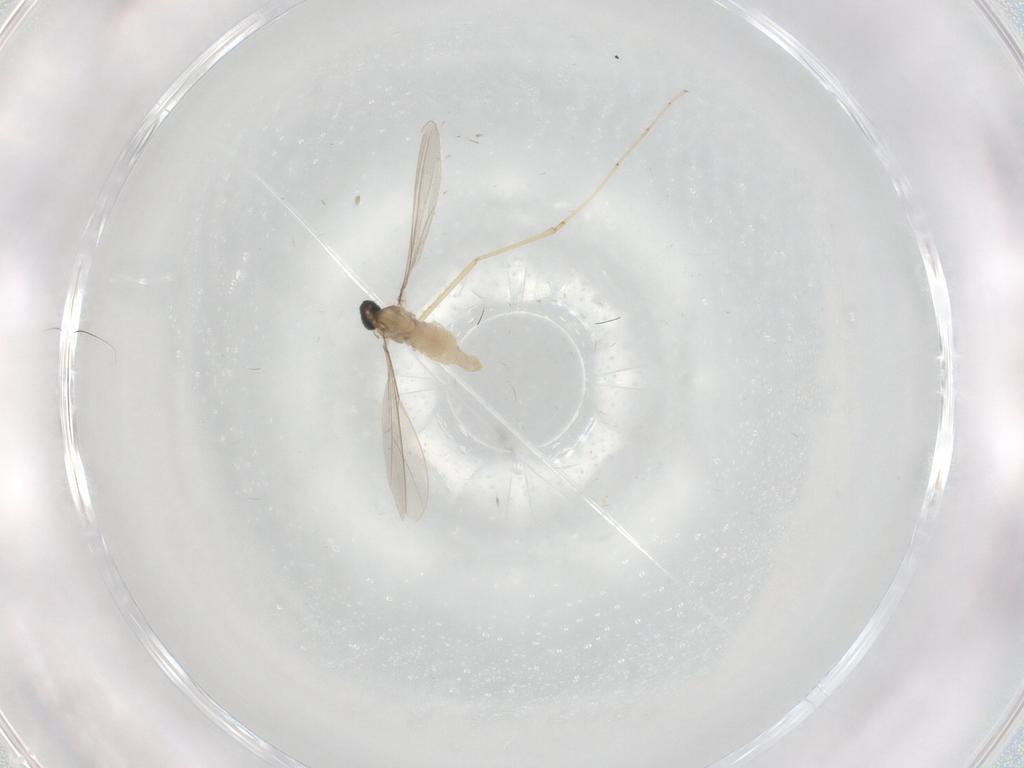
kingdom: Animalia
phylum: Arthropoda
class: Insecta
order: Diptera
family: Cecidomyiidae
